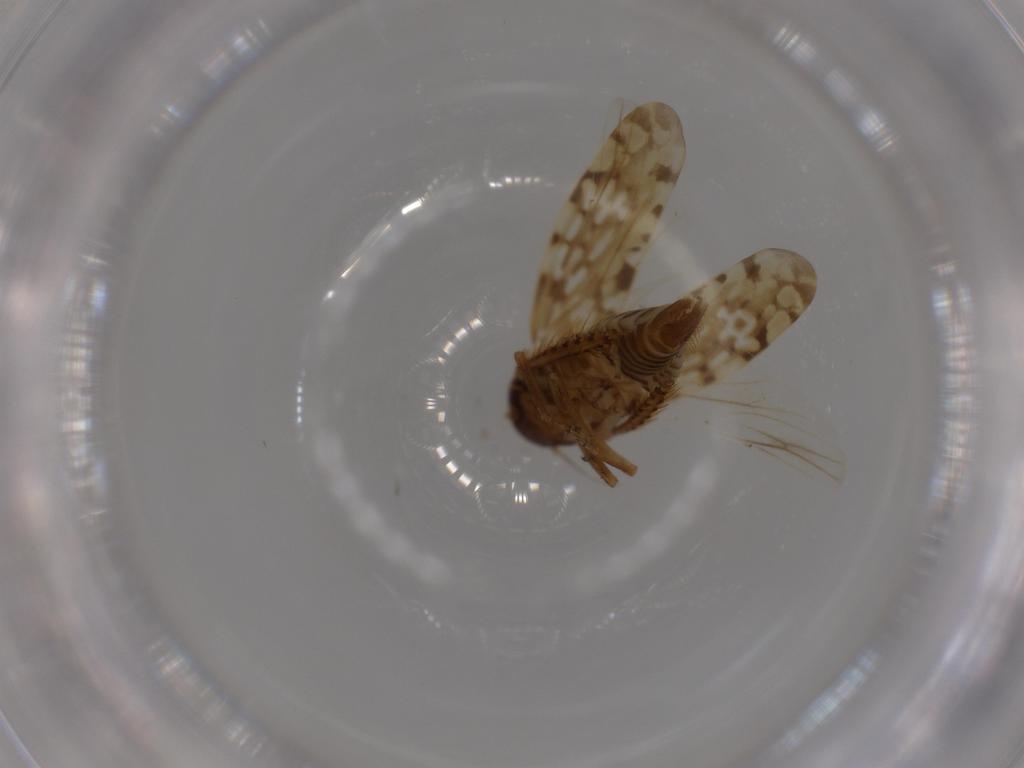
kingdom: Animalia
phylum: Arthropoda
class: Insecta
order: Hemiptera
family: Cicadellidae
